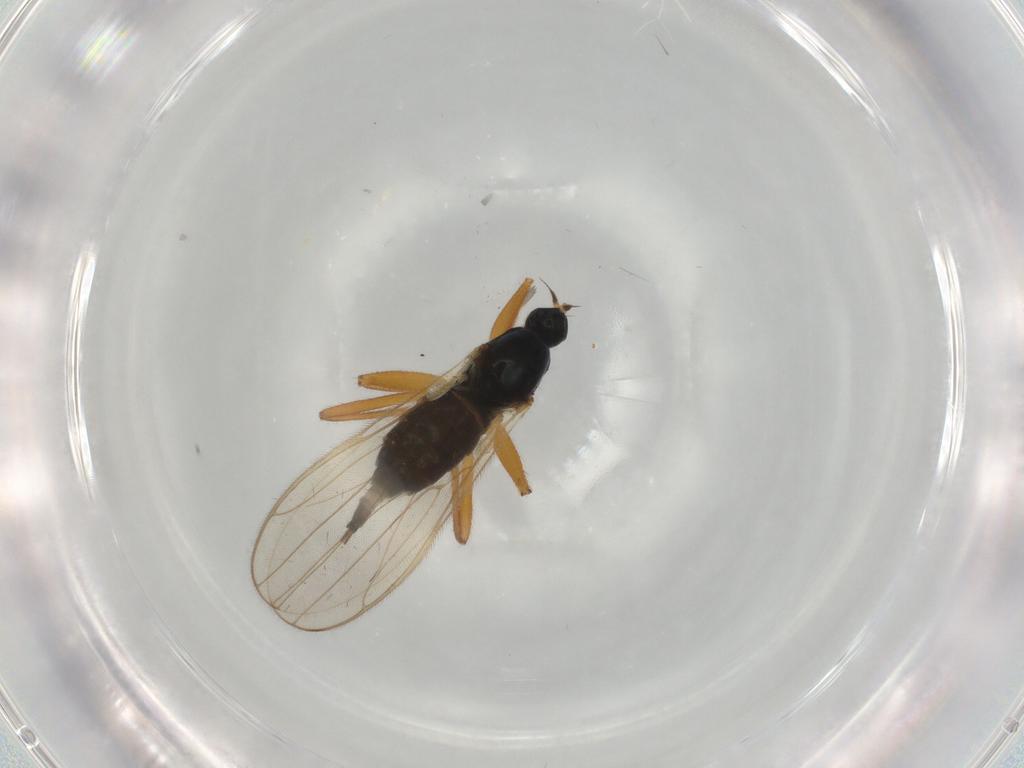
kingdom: Animalia
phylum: Arthropoda
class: Insecta
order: Diptera
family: Hybotidae
